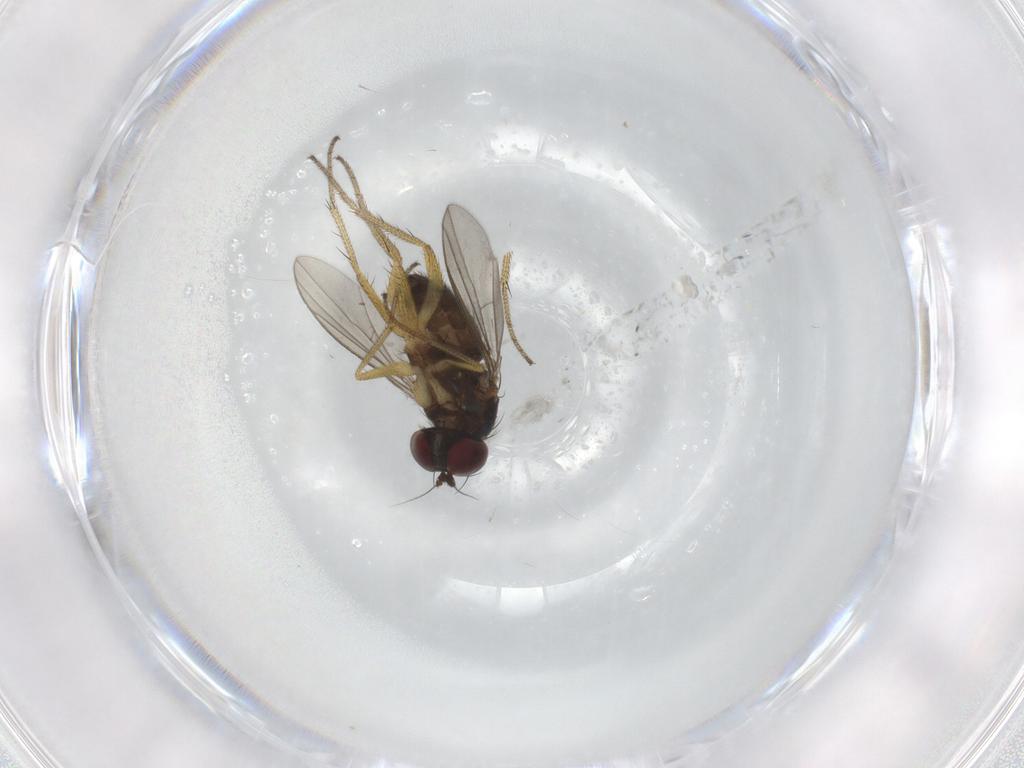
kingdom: Animalia
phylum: Arthropoda
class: Insecta
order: Diptera
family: Dolichopodidae
